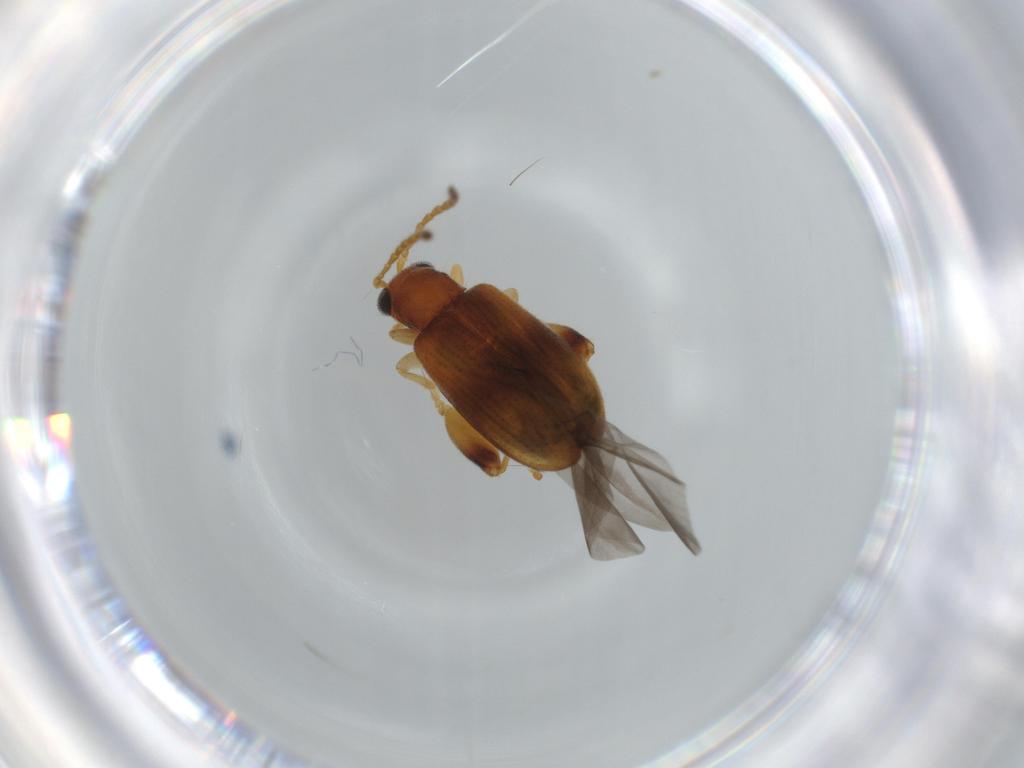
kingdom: Animalia
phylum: Arthropoda
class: Insecta
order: Coleoptera
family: Chrysomelidae
